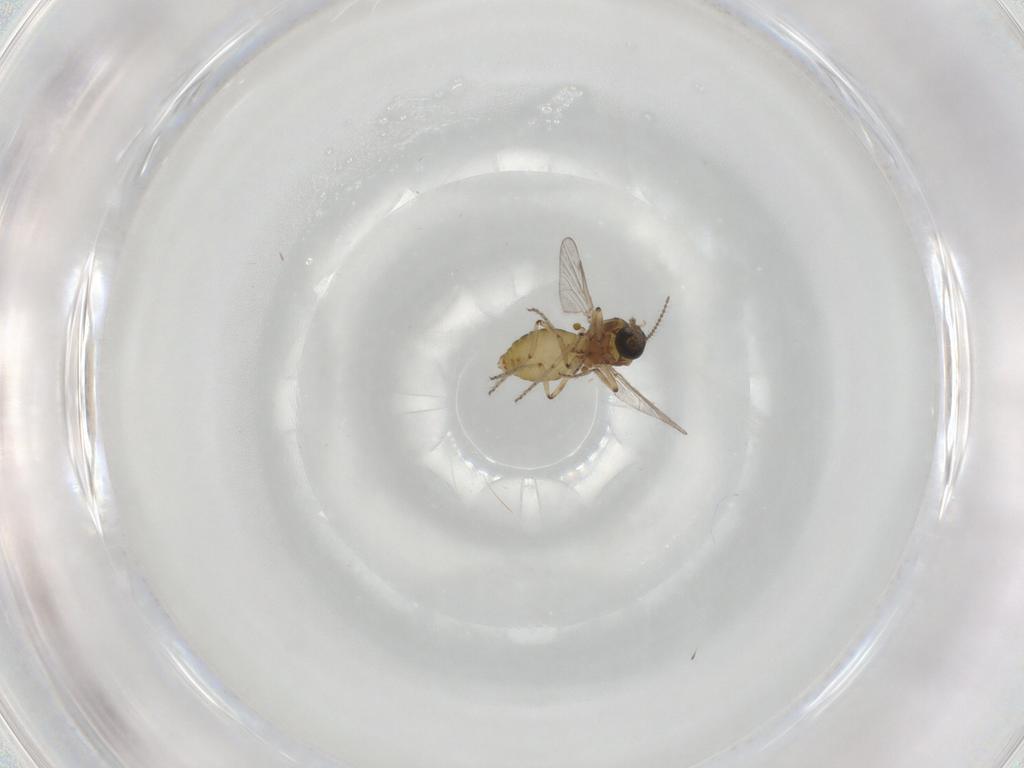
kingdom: Animalia
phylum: Arthropoda
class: Insecta
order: Diptera
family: Ceratopogonidae
